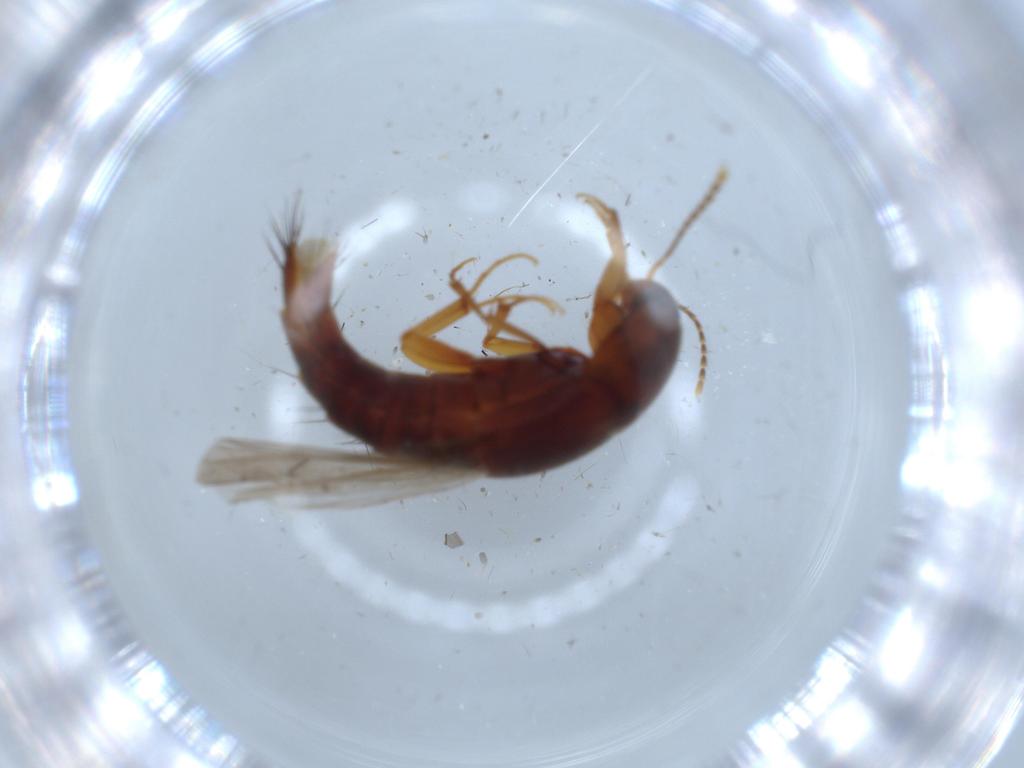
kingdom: Animalia
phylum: Arthropoda
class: Insecta
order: Coleoptera
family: Staphylinidae
